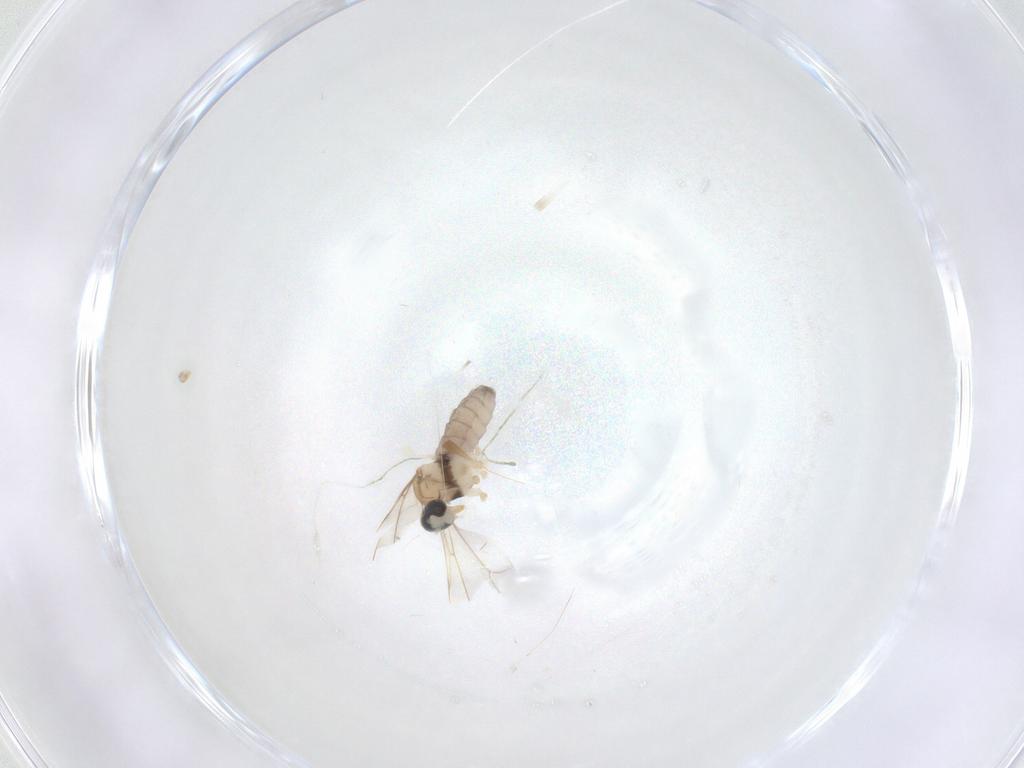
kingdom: Animalia
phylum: Arthropoda
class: Insecta
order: Diptera
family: Cecidomyiidae
